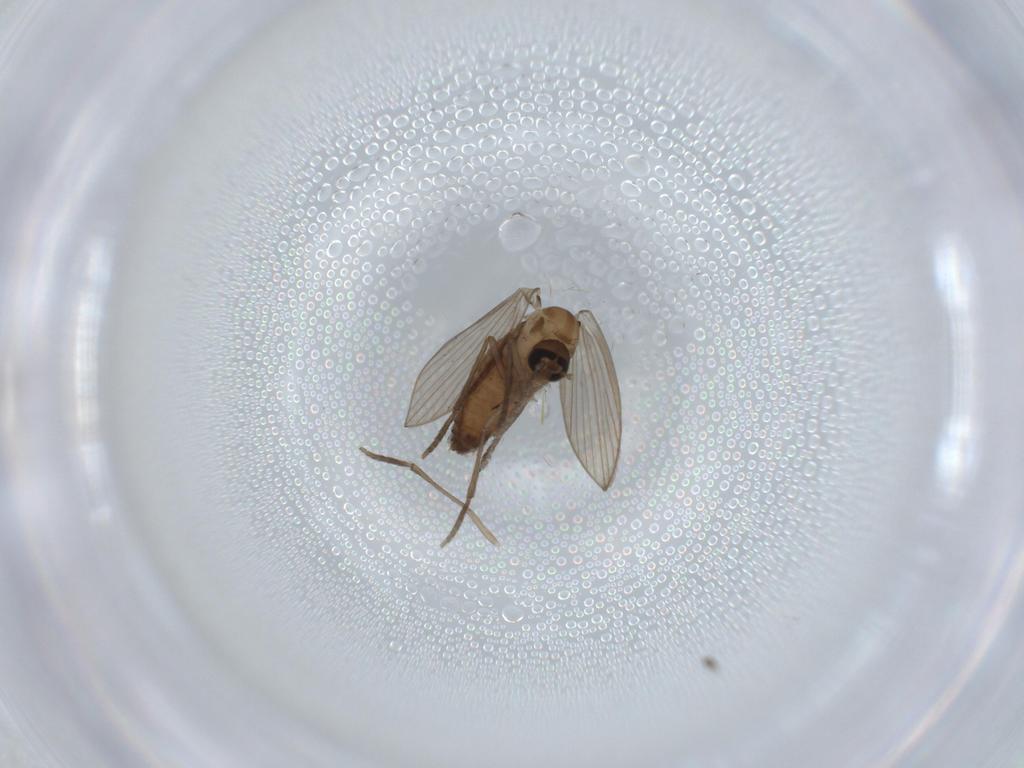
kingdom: Animalia
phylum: Arthropoda
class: Insecta
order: Diptera
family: Psychodidae
